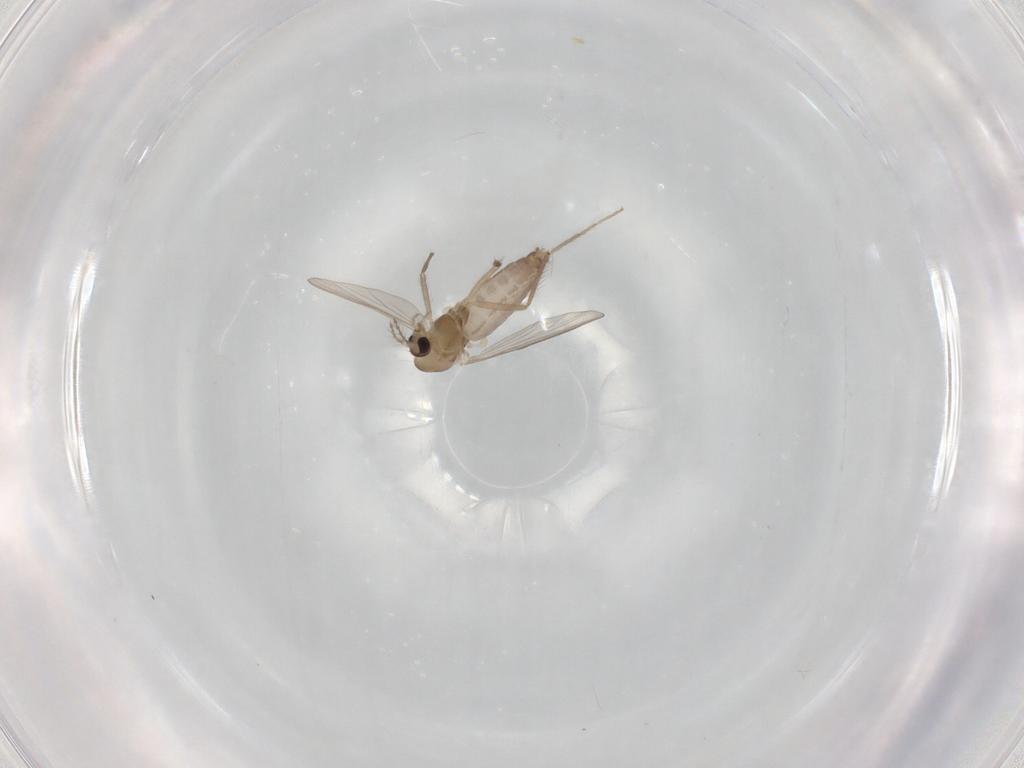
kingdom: Animalia
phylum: Arthropoda
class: Insecta
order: Diptera
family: Chironomidae
